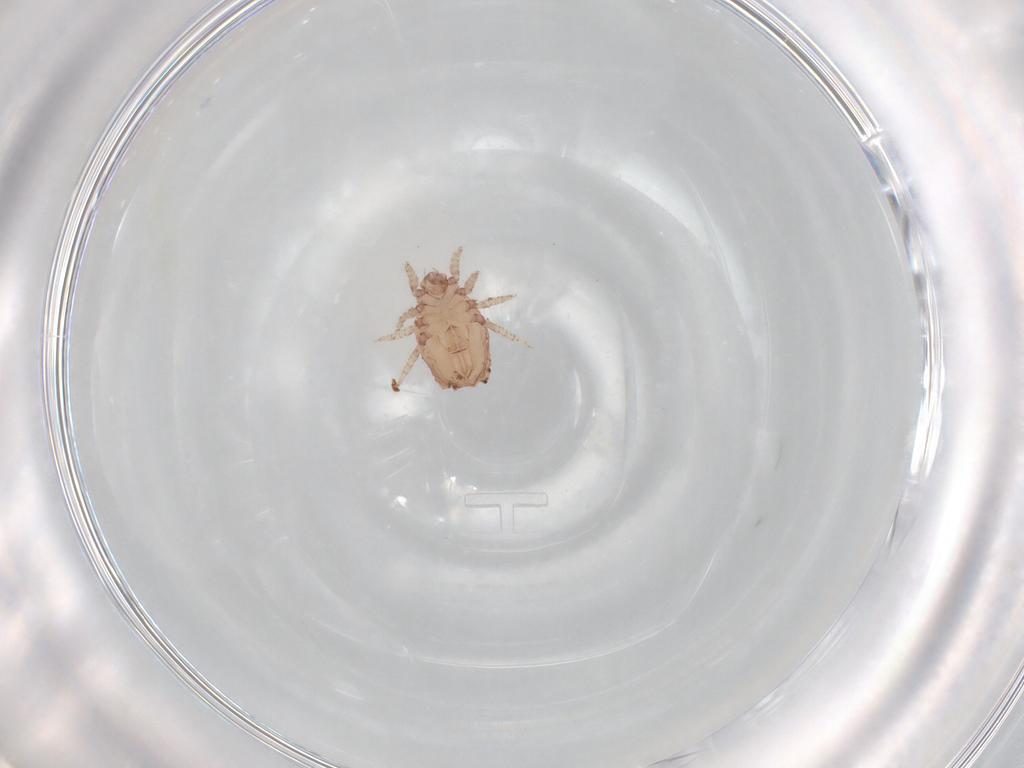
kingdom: Animalia
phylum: Arthropoda
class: Arachnida
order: Sarcoptiformes
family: Crotoniidae
